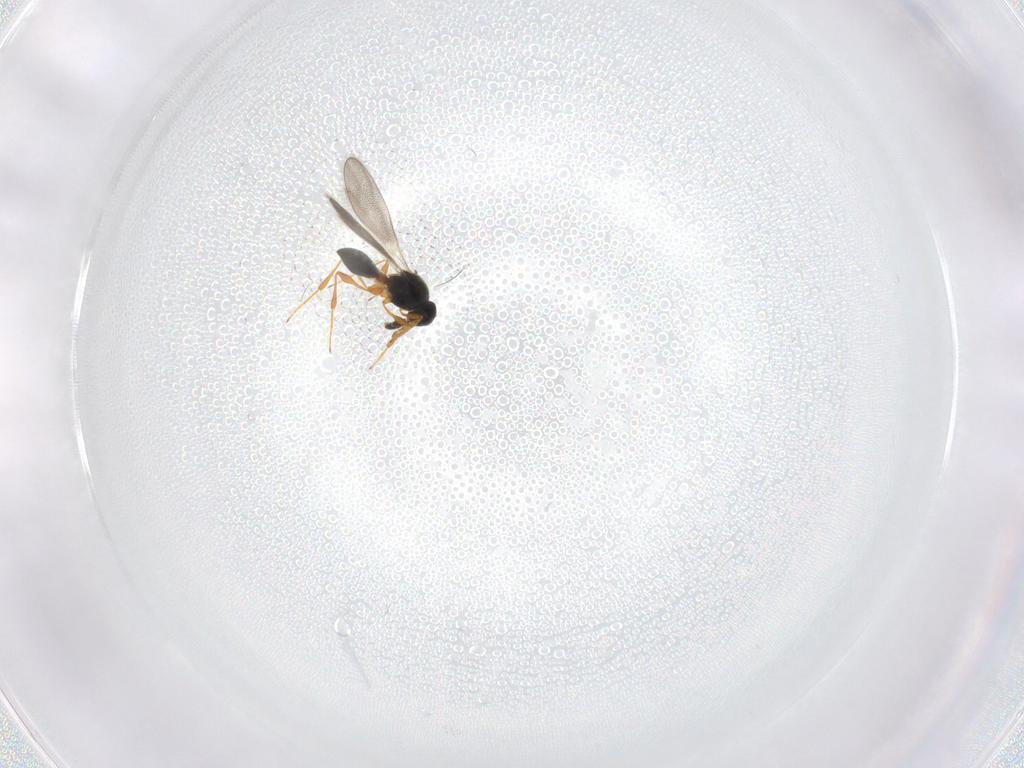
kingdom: Animalia
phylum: Arthropoda
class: Insecta
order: Hymenoptera
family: Platygastridae
